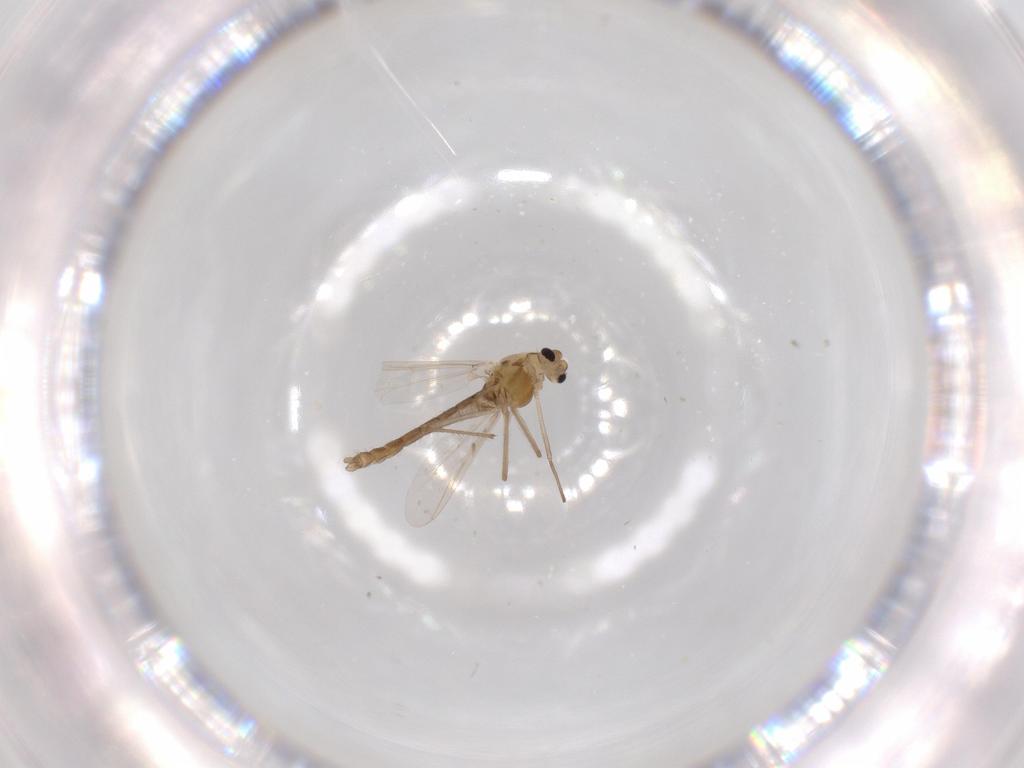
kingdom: Animalia
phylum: Arthropoda
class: Insecta
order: Diptera
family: Chironomidae
